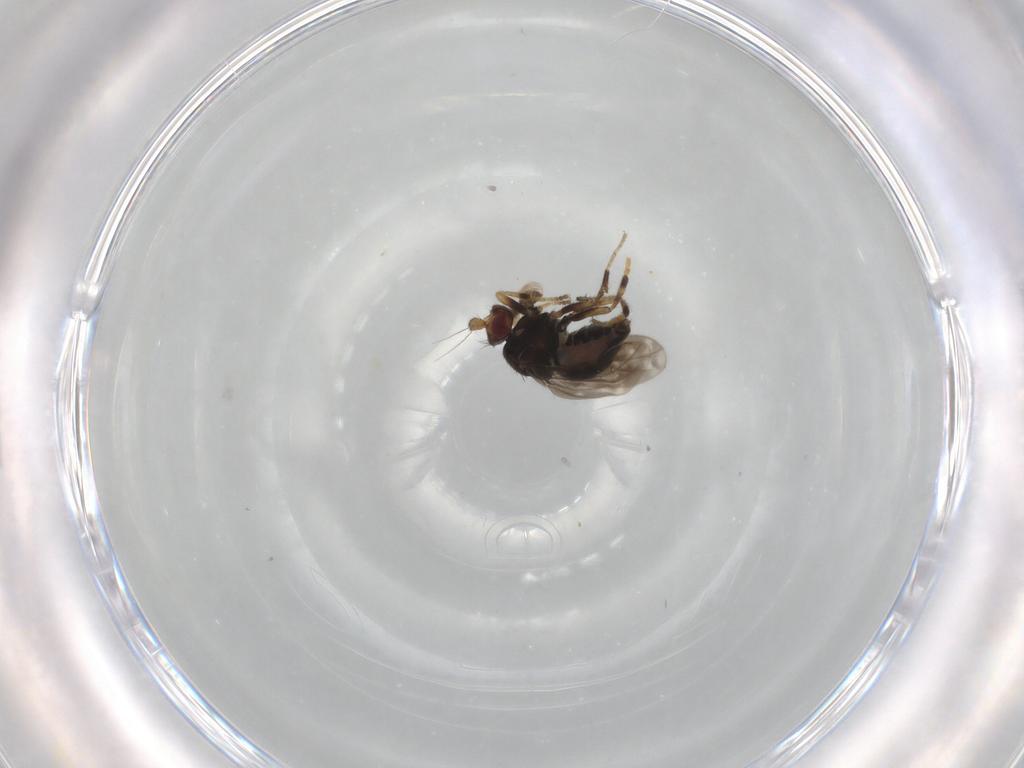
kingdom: Animalia
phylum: Arthropoda
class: Insecta
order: Diptera
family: Sphaeroceridae
